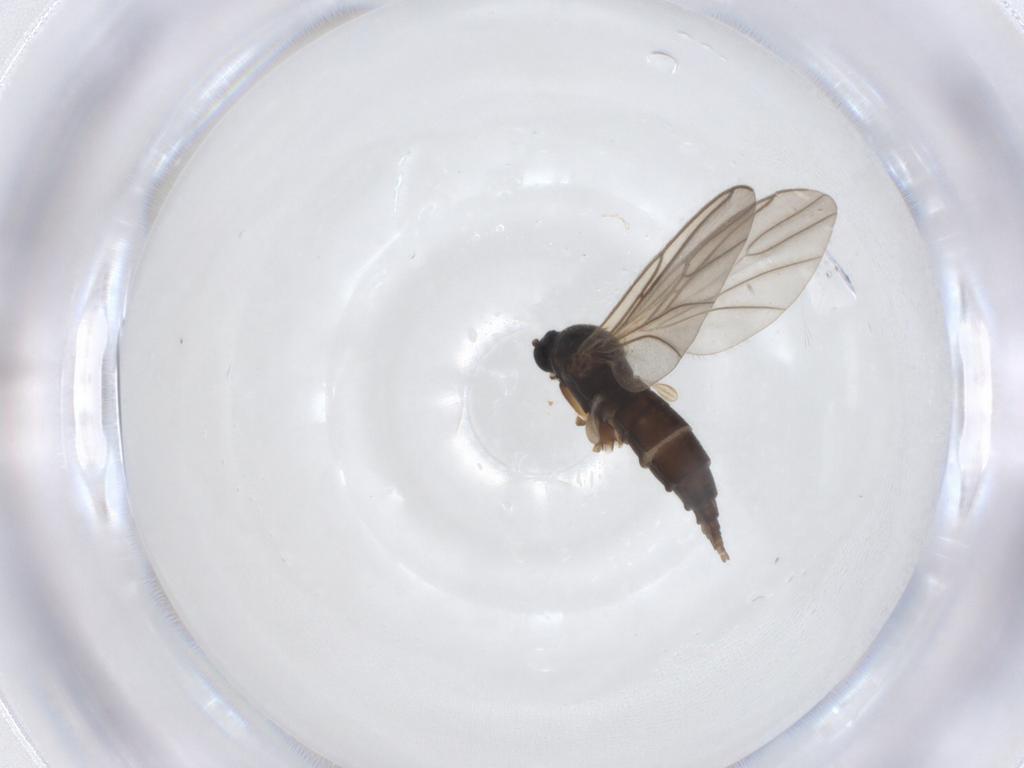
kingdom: Animalia
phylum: Arthropoda
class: Insecta
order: Diptera
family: Sciaridae
